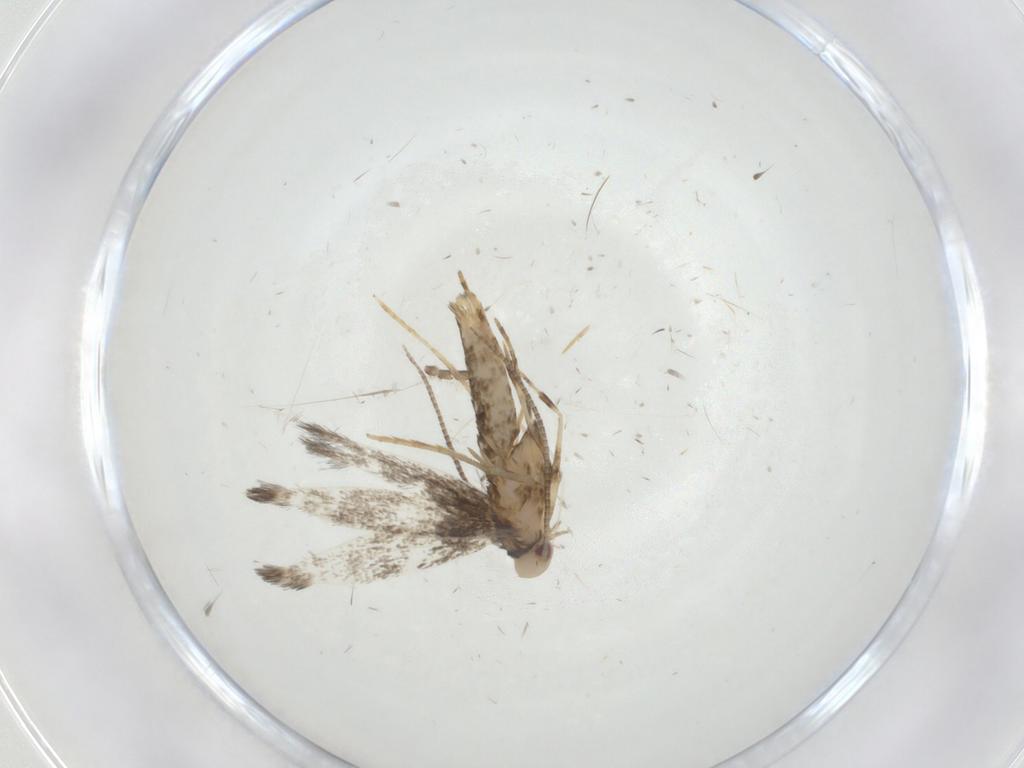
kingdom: Animalia
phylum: Arthropoda
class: Insecta
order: Lepidoptera
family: Gracillariidae
